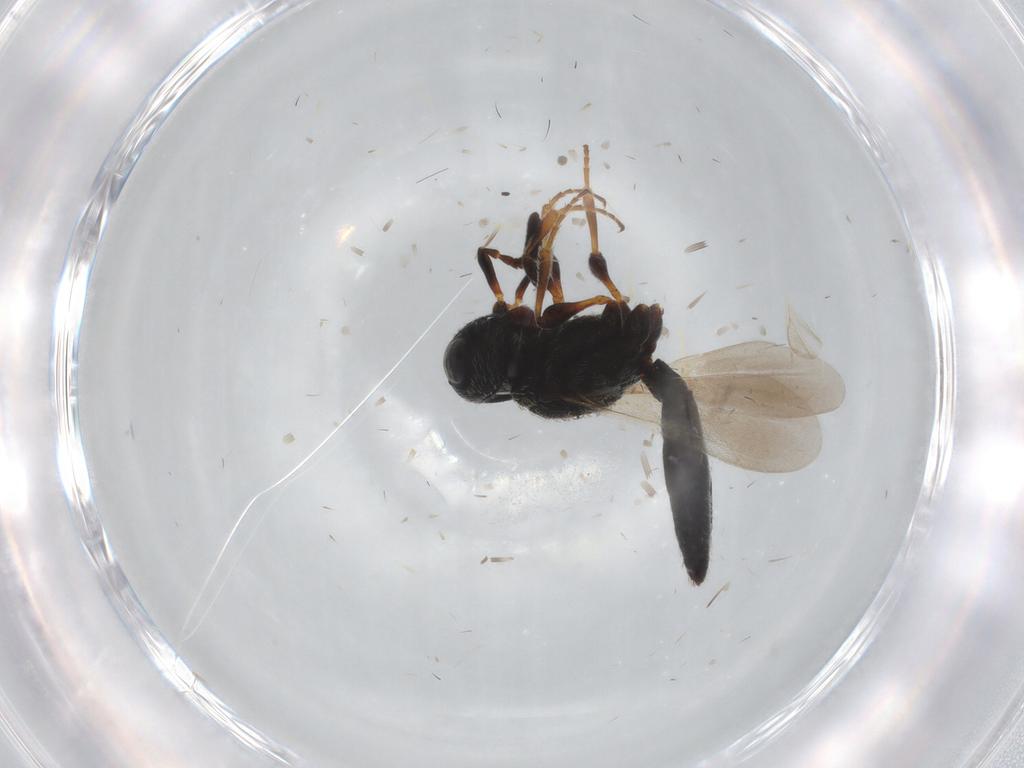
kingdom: Animalia
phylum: Arthropoda
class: Insecta
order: Hymenoptera
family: Scelionidae
